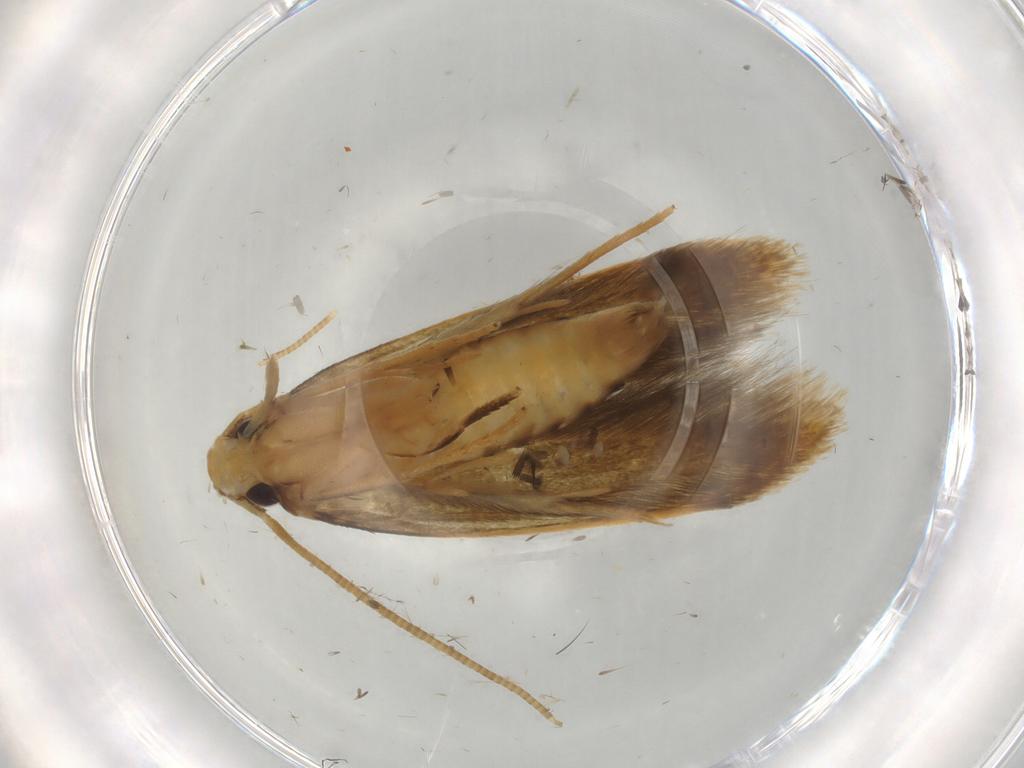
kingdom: Animalia
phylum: Arthropoda
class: Insecta
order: Lepidoptera
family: Tineidae
